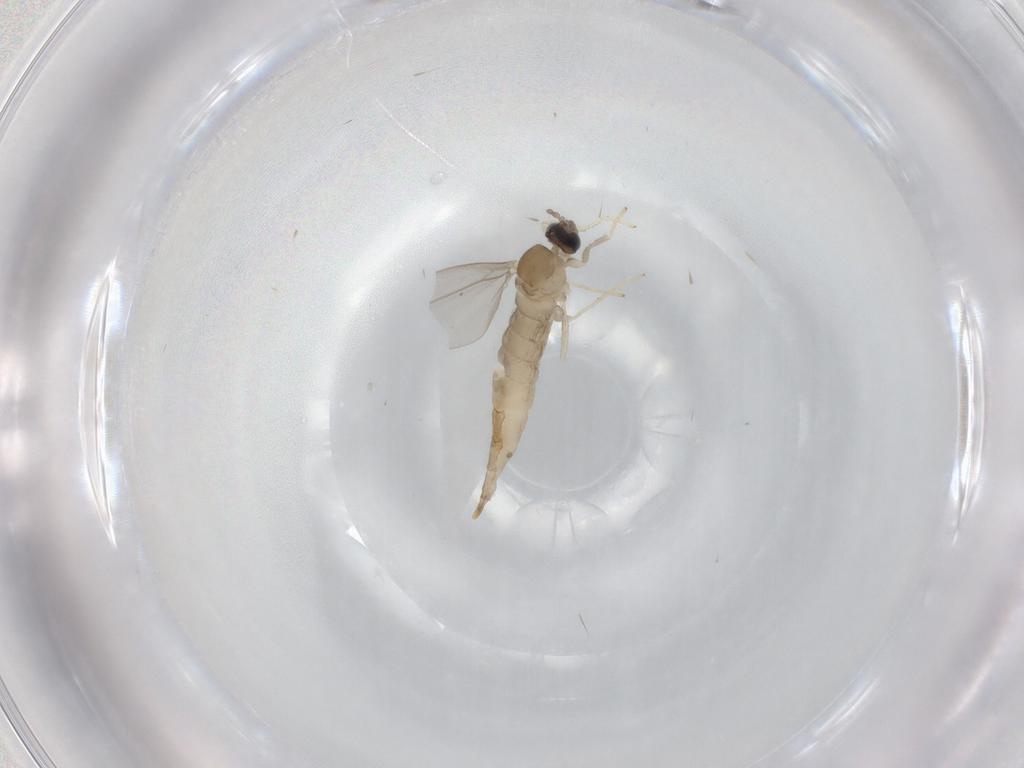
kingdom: Animalia
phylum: Arthropoda
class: Insecta
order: Diptera
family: Cecidomyiidae
